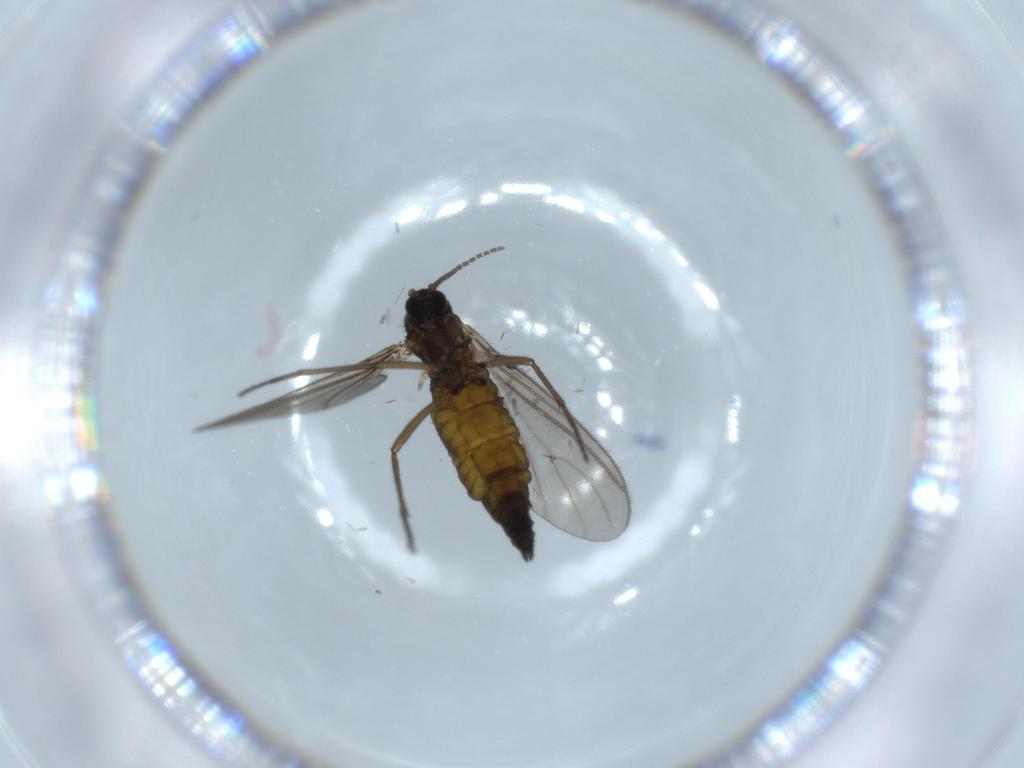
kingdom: Animalia
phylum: Arthropoda
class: Insecta
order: Diptera
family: Sciaridae
